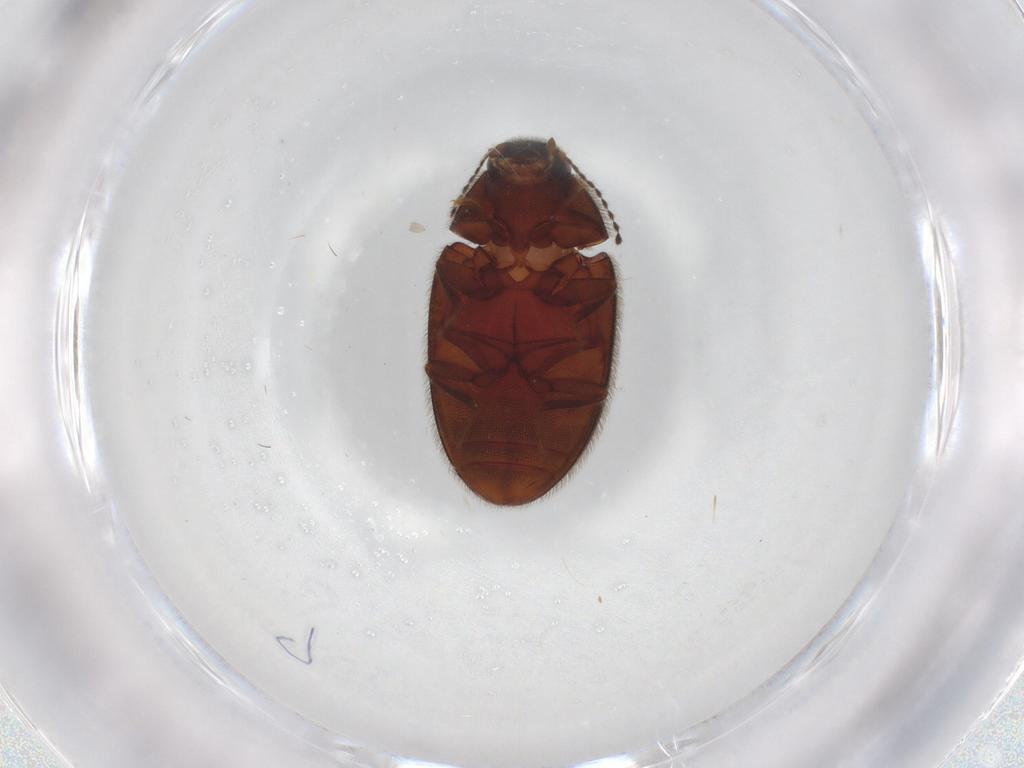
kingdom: Animalia
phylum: Arthropoda
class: Insecta
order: Coleoptera
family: Limnichidae
